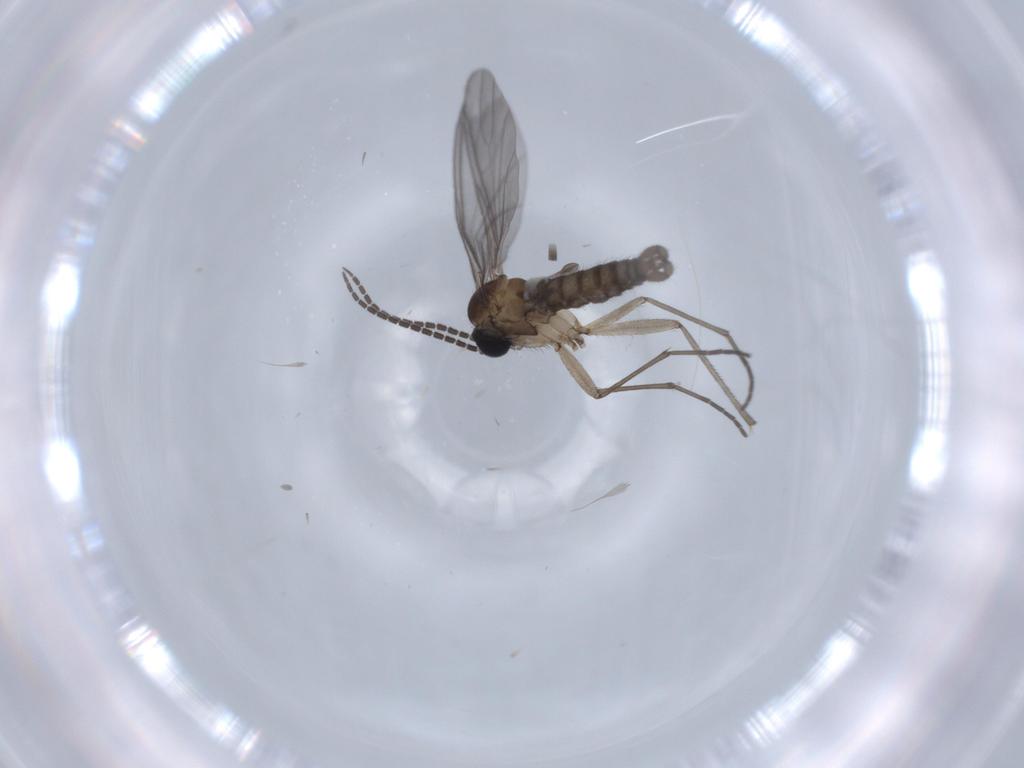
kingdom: Animalia
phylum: Arthropoda
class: Insecta
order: Diptera
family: Sciaridae
